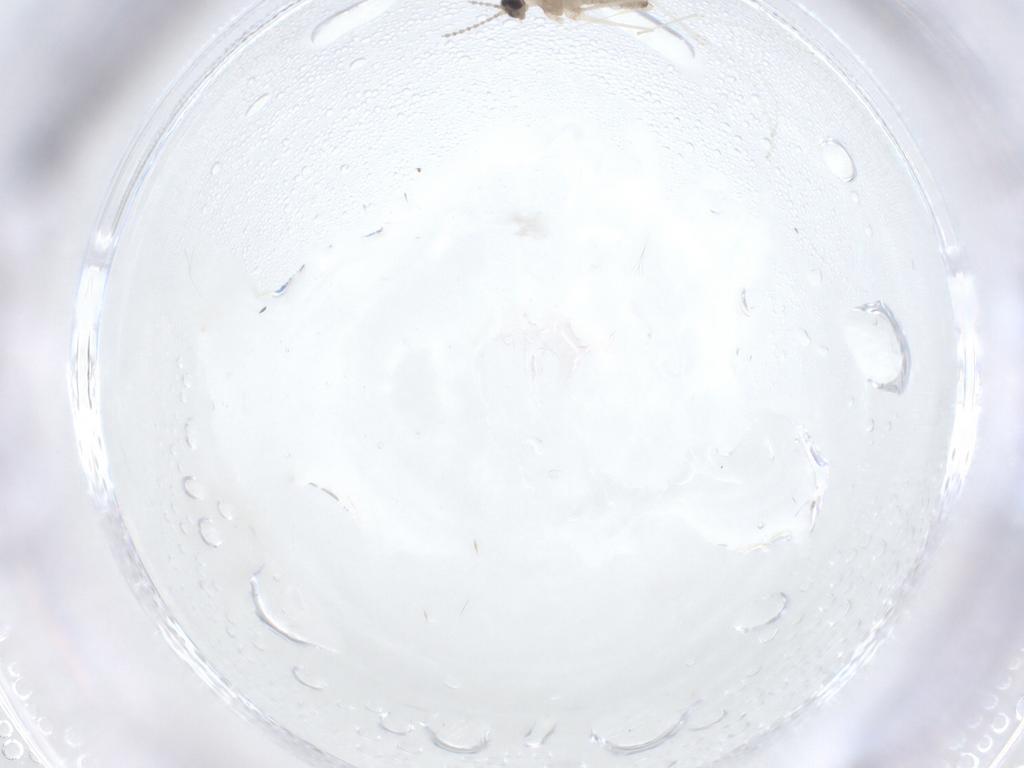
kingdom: Animalia
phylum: Arthropoda
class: Insecta
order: Diptera
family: Cecidomyiidae
